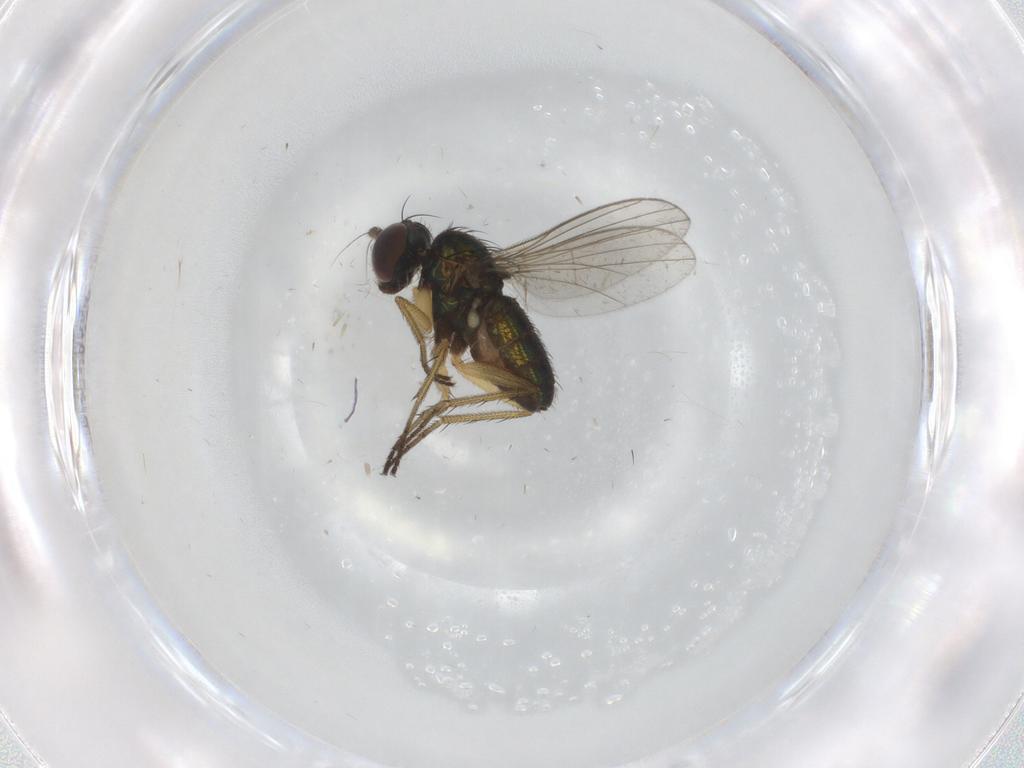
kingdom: Animalia
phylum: Arthropoda
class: Insecta
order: Diptera
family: Dolichopodidae
